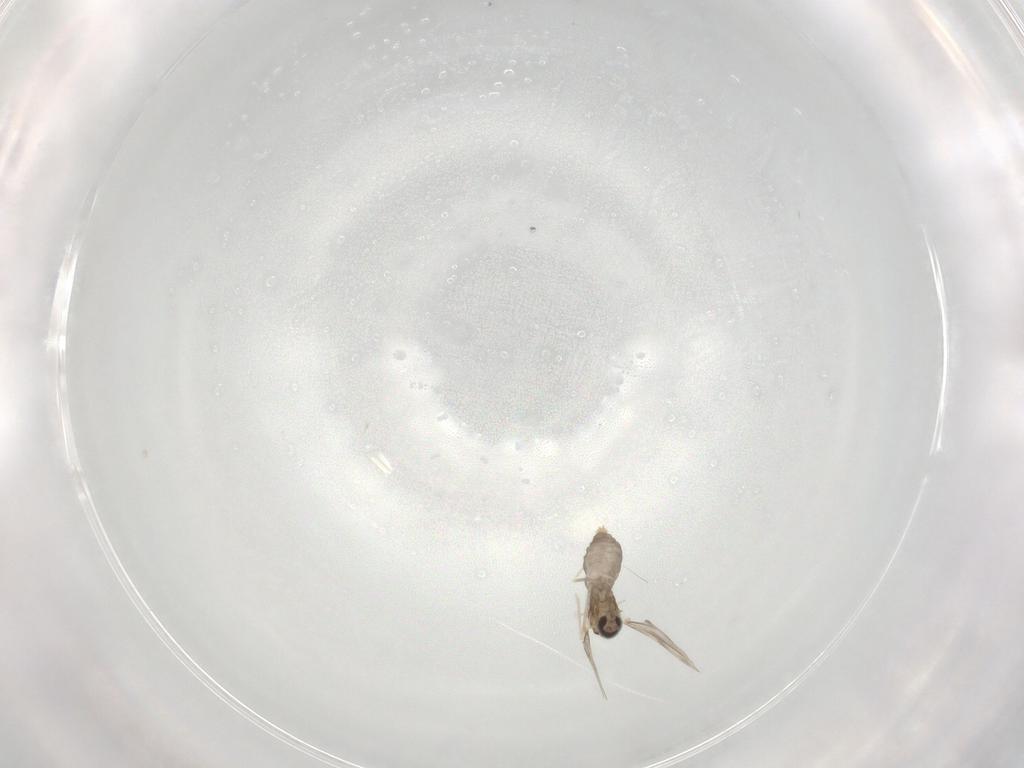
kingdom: Animalia
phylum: Arthropoda
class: Insecta
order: Diptera
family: Cecidomyiidae
